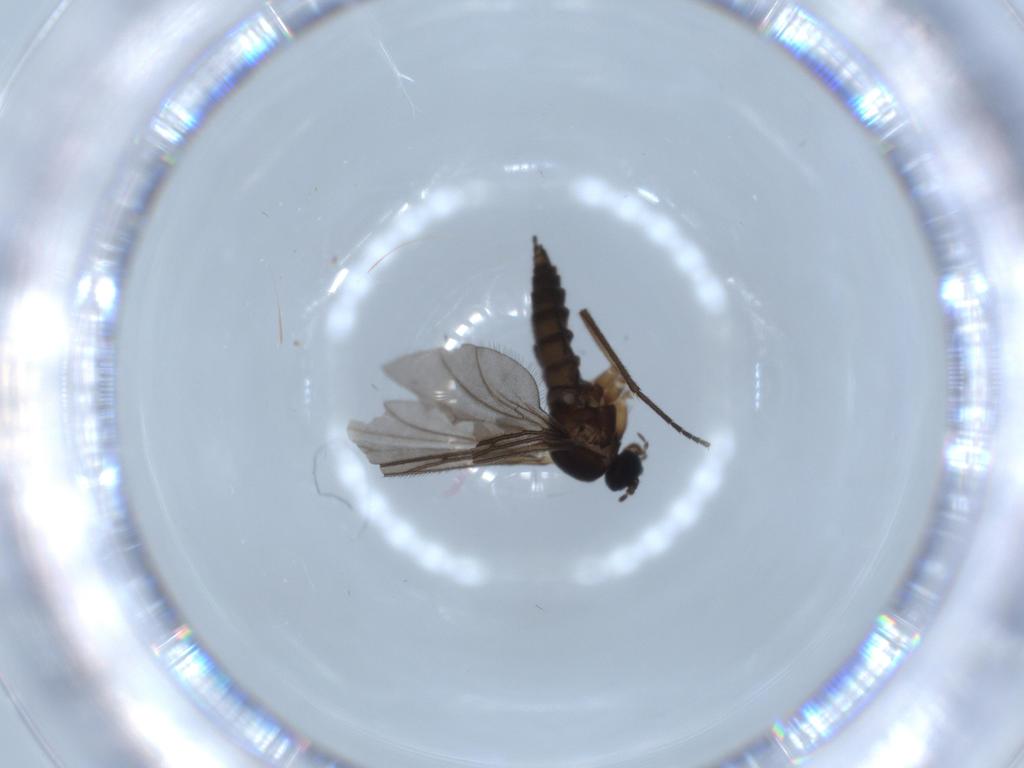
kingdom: Animalia
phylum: Arthropoda
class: Insecta
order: Diptera
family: Sciaridae
